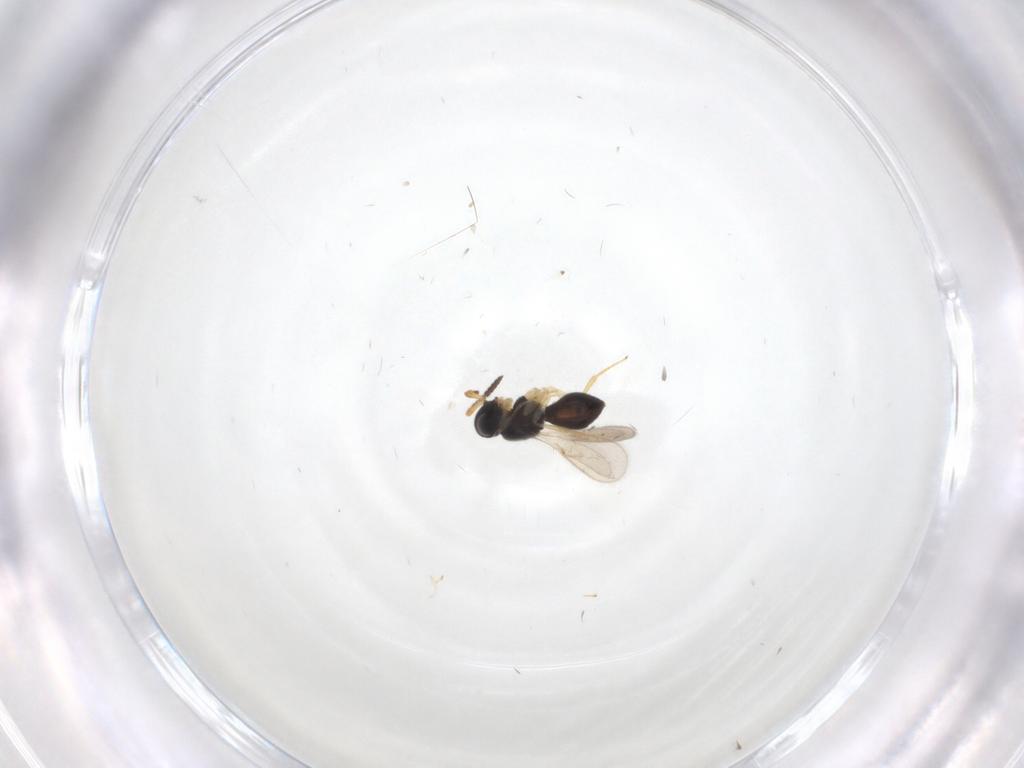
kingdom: Animalia
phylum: Arthropoda
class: Insecta
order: Hymenoptera
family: Scelionidae
